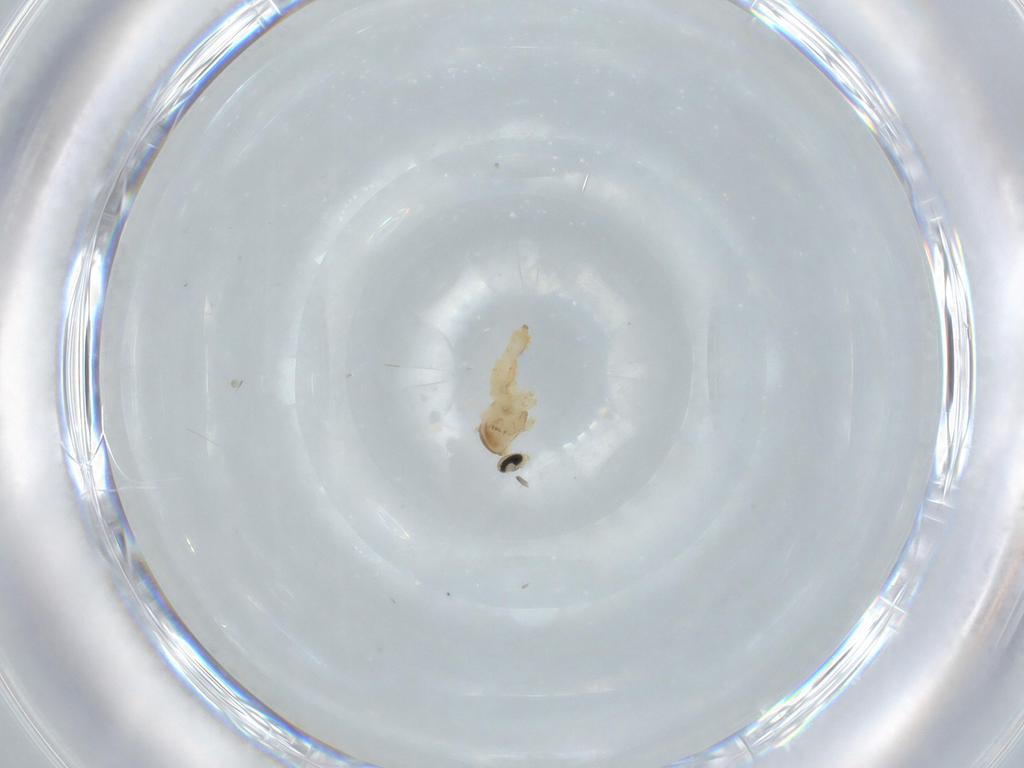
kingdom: Animalia
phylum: Arthropoda
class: Insecta
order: Diptera
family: Cecidomyiidae
